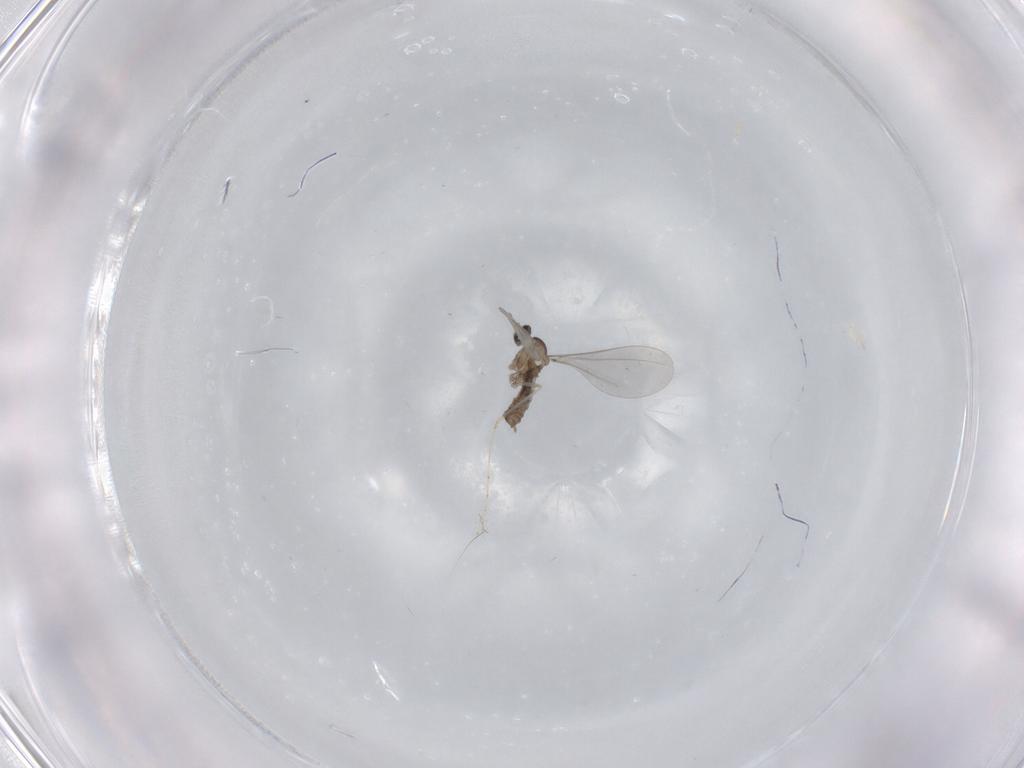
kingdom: Animalia
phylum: Arthropoda
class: Insecta
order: Diptera
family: Cecidomyiidae
